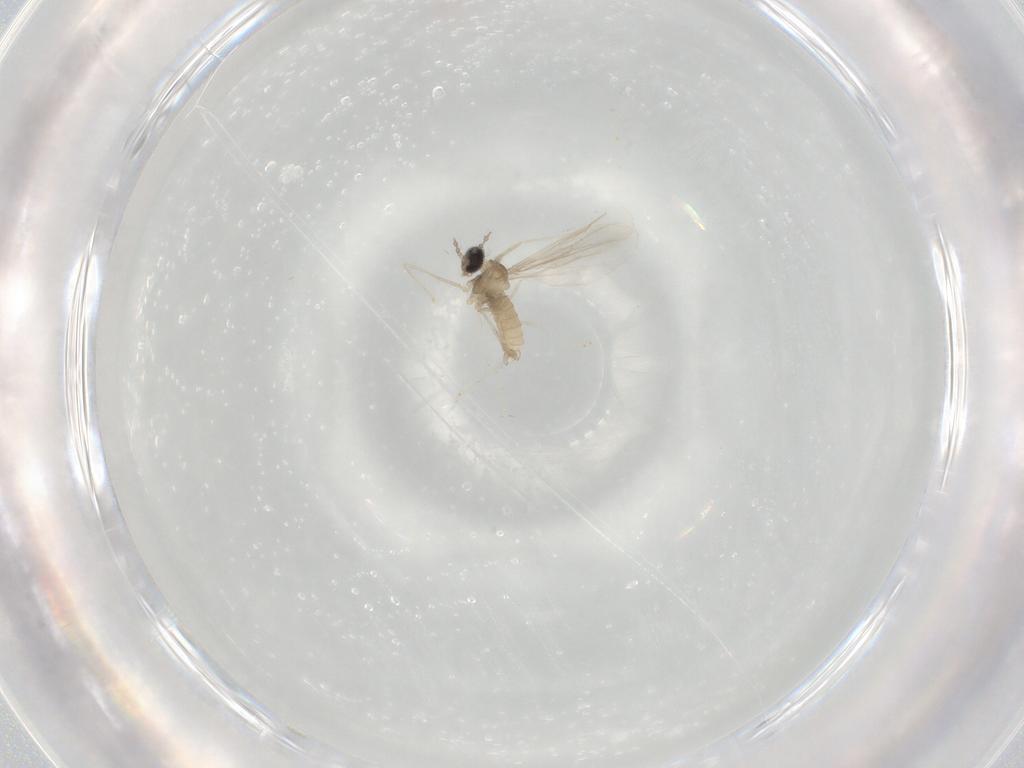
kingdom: Animalia
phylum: Arthropoda
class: Insecta
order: Diptera
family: Cecidomyiidae
